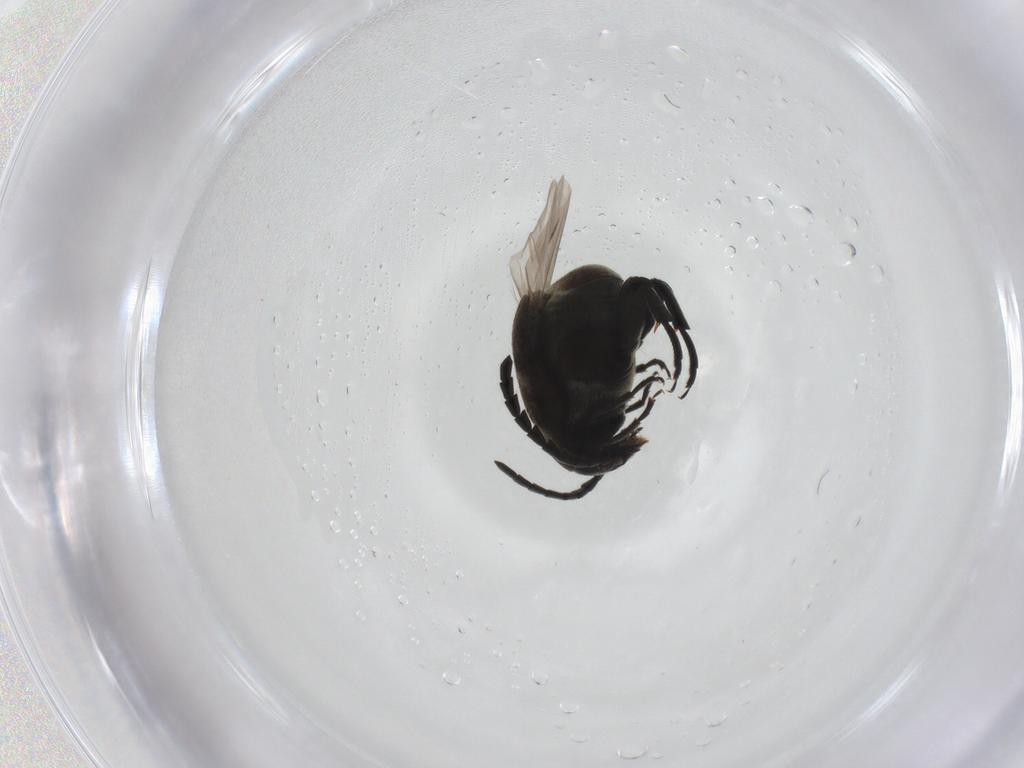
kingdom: Animalia
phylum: Arthropoda
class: Insecta
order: Coleoptera
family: Chrysomelidae
